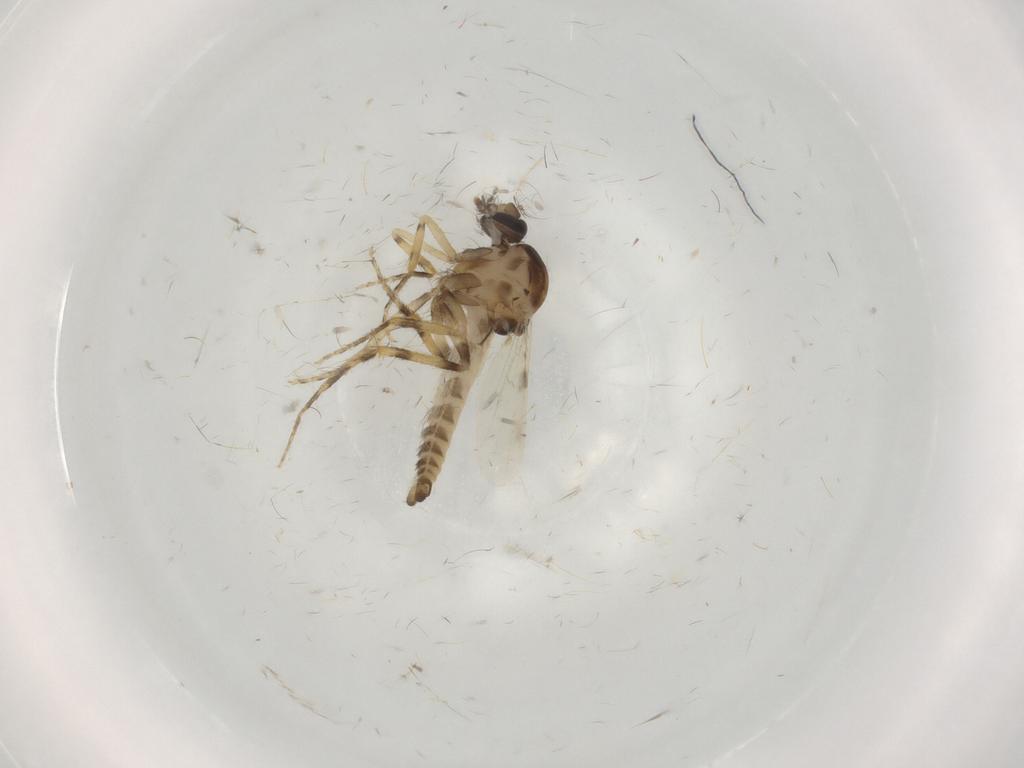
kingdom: Animalia
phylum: Arthropoda
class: Insecta
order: Diptera
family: Ceratopogonidae
